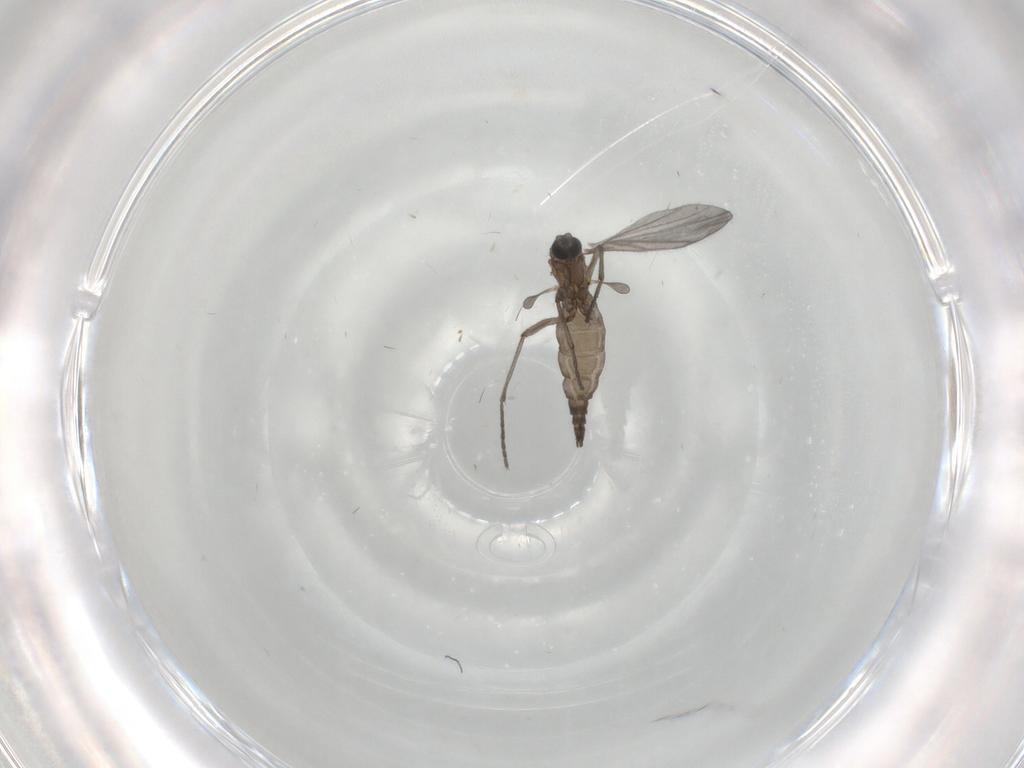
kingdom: Animalia
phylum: Arthropoda
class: Insecta
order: Diptera
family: Sciaridae
